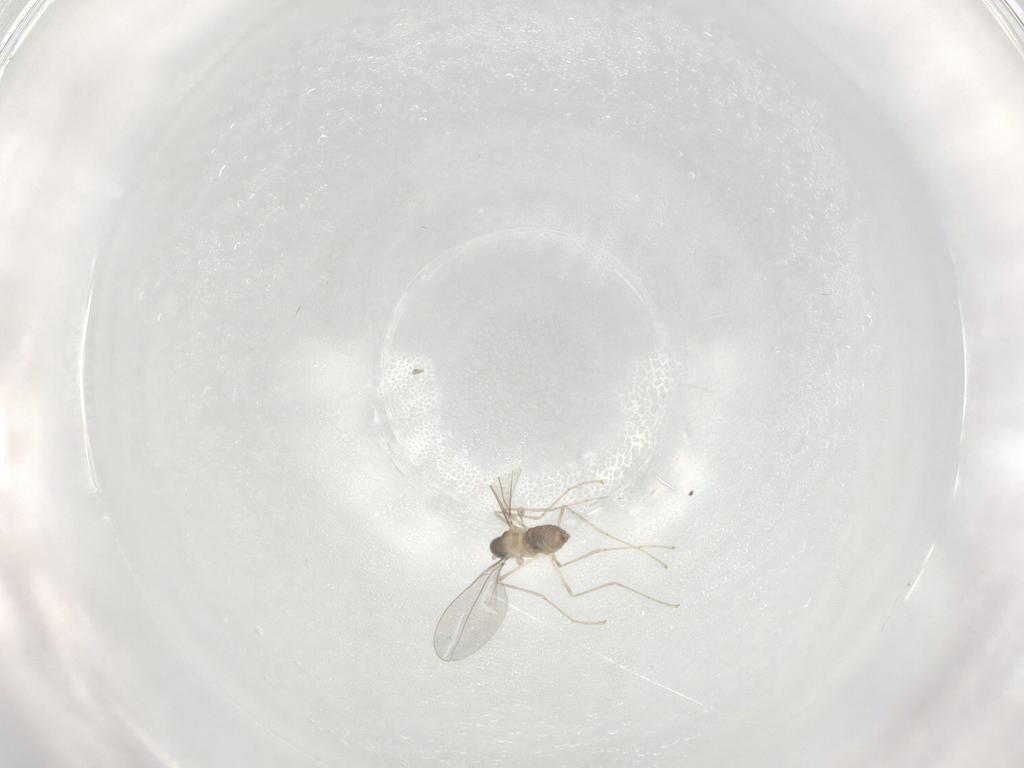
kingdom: Animalia
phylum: Arthropoda
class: Insecta
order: Diptera
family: Cecidomyiidae
